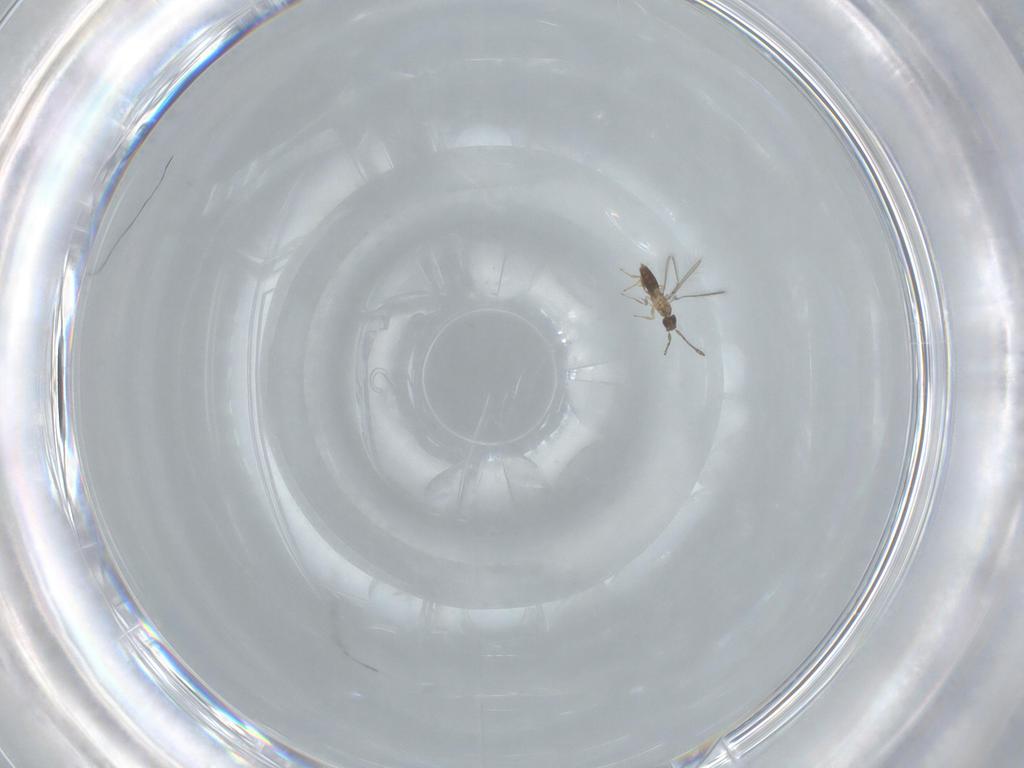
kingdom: Animalia
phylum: Arthropoda
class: Insecta
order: Hymenoptera
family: Mymaridae
